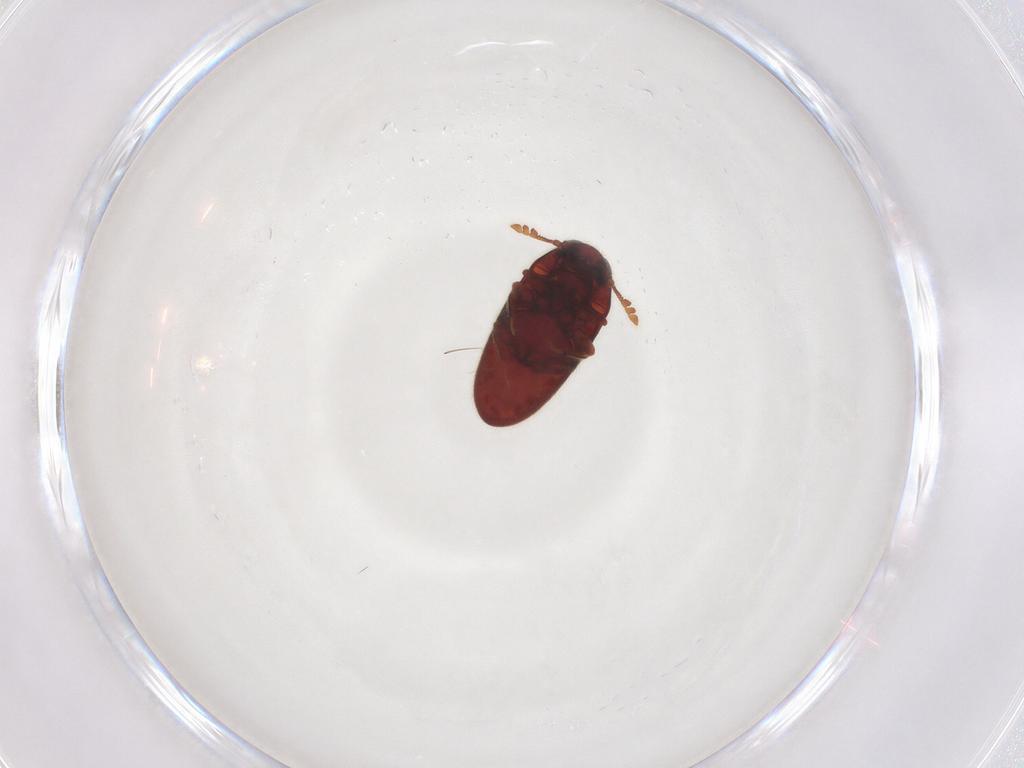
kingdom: Animalia
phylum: Arthropoda
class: Insecta
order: Coleoptera
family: Throscidae
